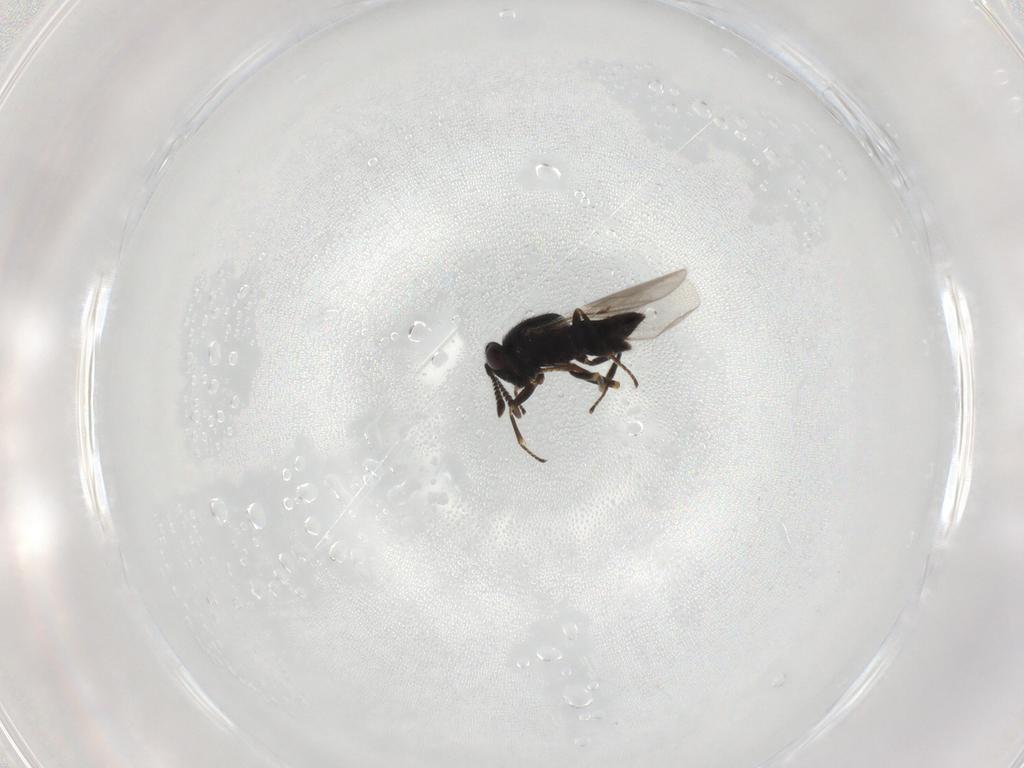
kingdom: Animalia
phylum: Arthropoda
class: Insecta
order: Hymenoptera
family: Encyrtidae
